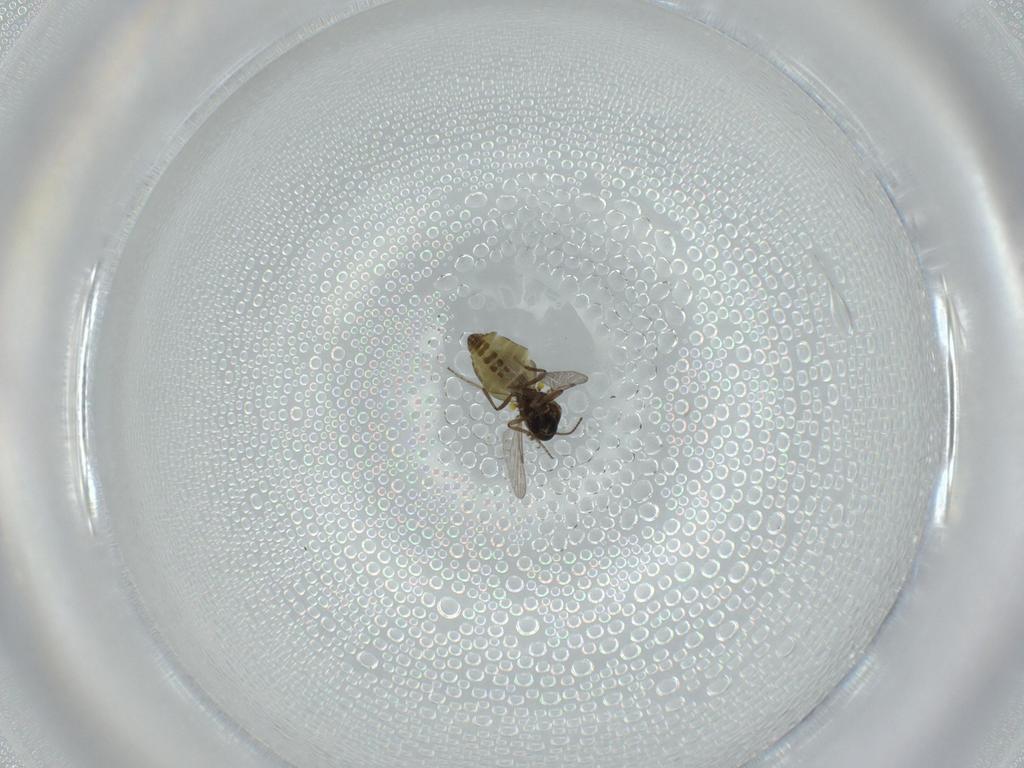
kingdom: Animalia
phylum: Arthropoda
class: Insecta
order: Diptera
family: Ceratopogonidae
